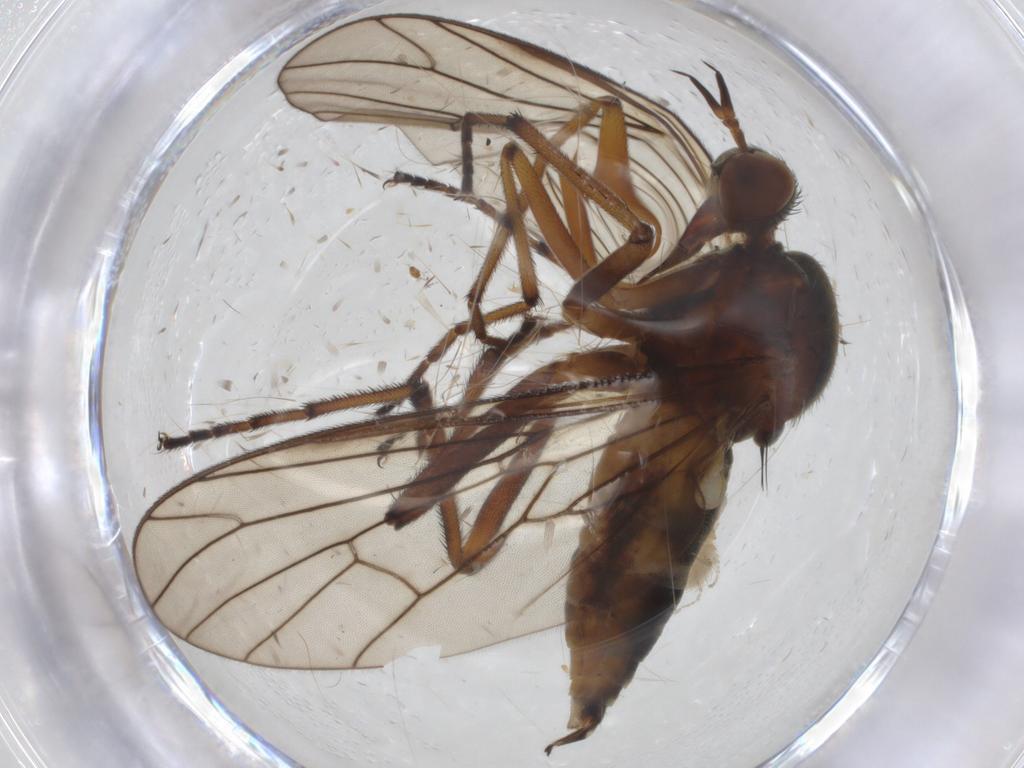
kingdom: Animalia
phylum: Arthropoda
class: Insecta
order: Diptera
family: Empididae
